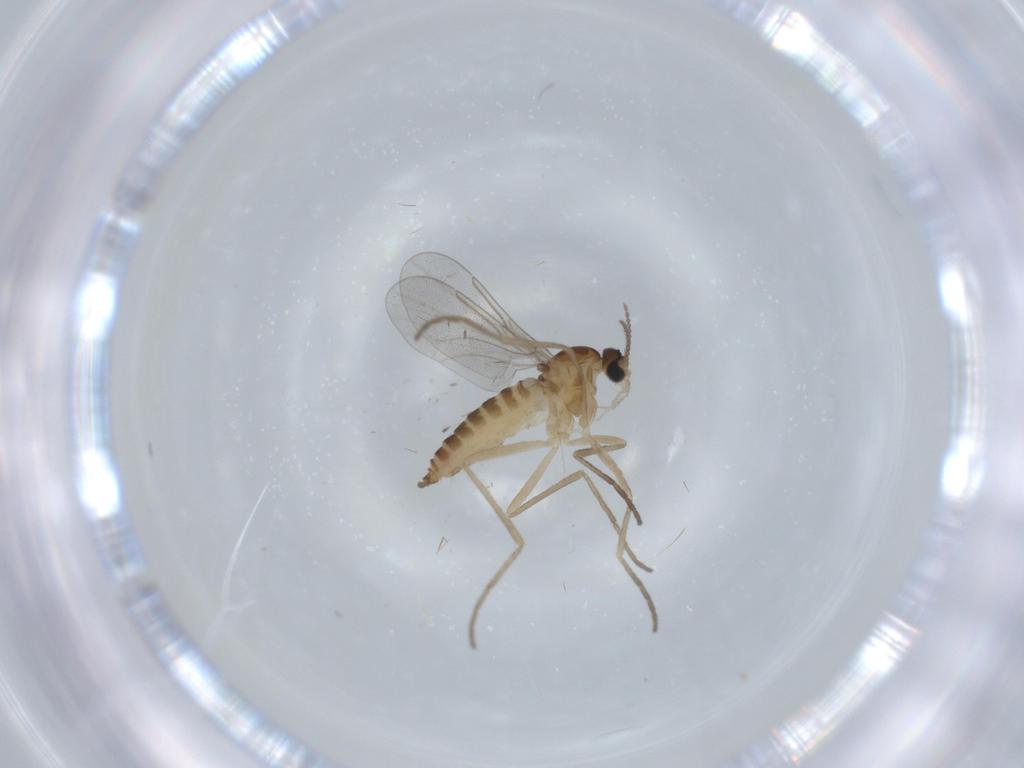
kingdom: Animalia
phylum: Arthropoda
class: Insecta
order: Diptera
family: Cecidomyiidae
